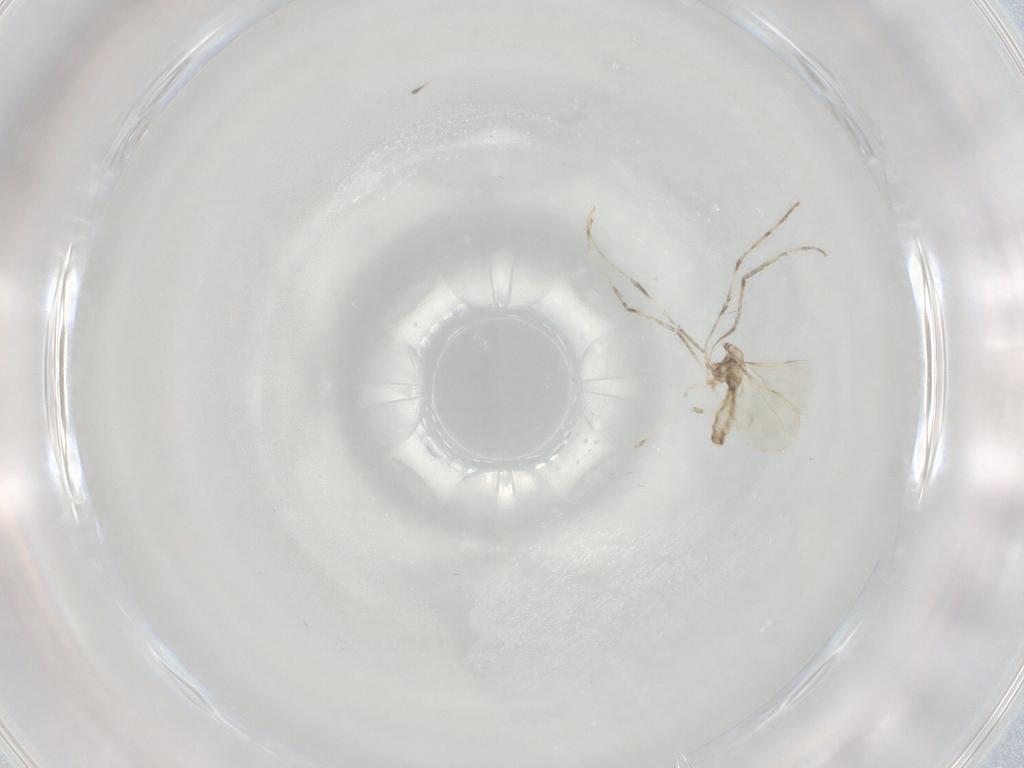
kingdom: Animalia
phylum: Arthropoda
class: Insecta
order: Diptera
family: Cecidomyiidae
